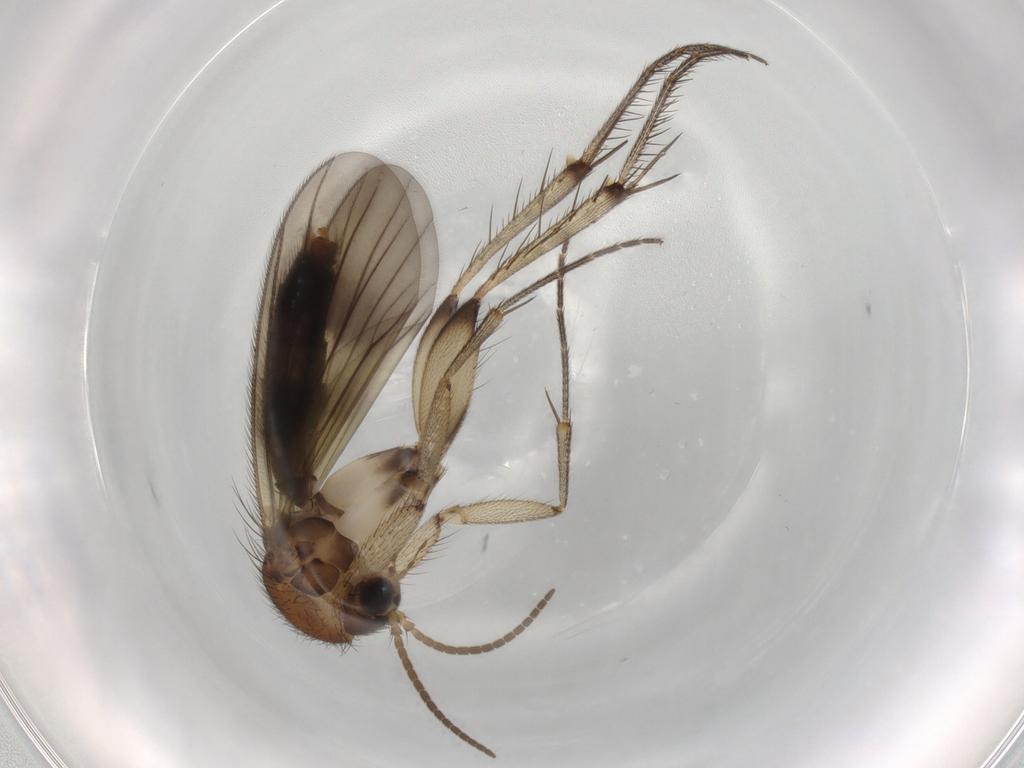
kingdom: Animalia
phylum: Arthropoda
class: Insecta
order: Diptera
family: Mycetophilidae
